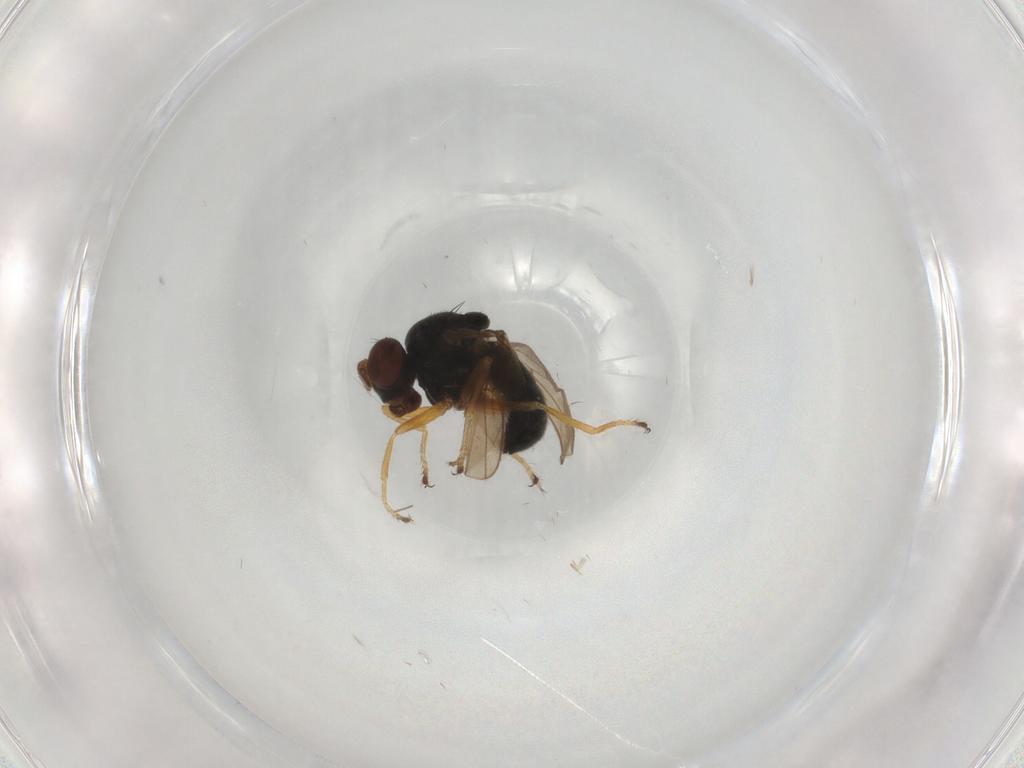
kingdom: Animalia
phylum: Arthropoda
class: Insecta
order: Diptera
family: Ephydridae
